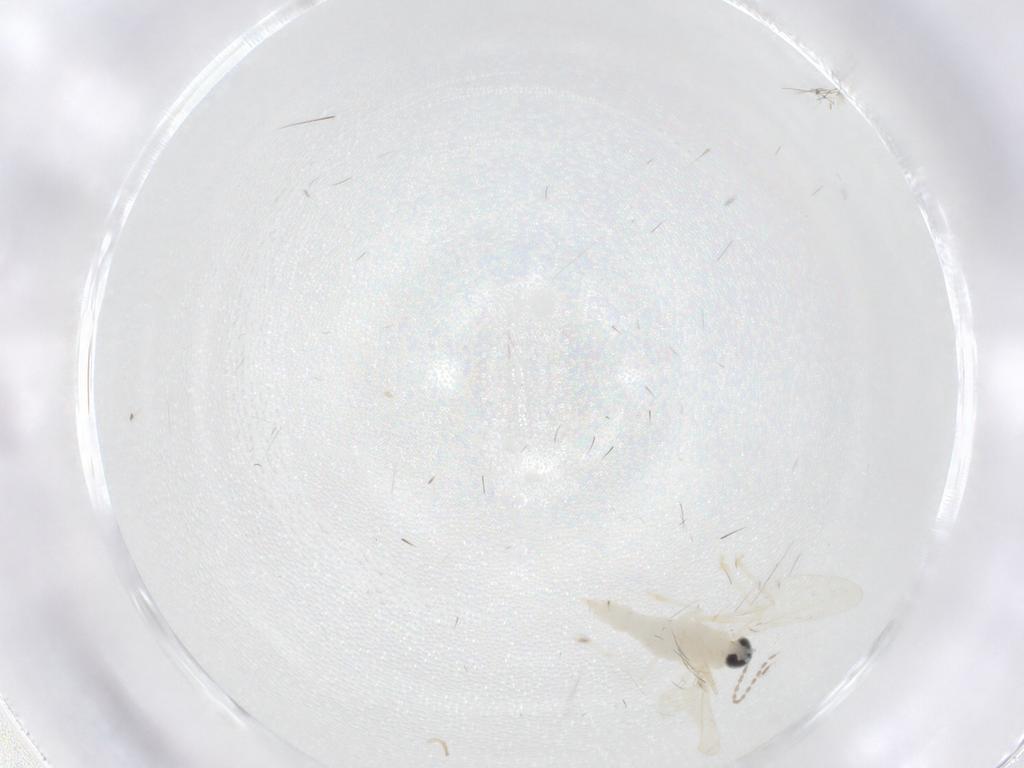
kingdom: Animalia
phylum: Arthropoda
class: Insecta
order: Diptera
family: Cecidomyiidae
